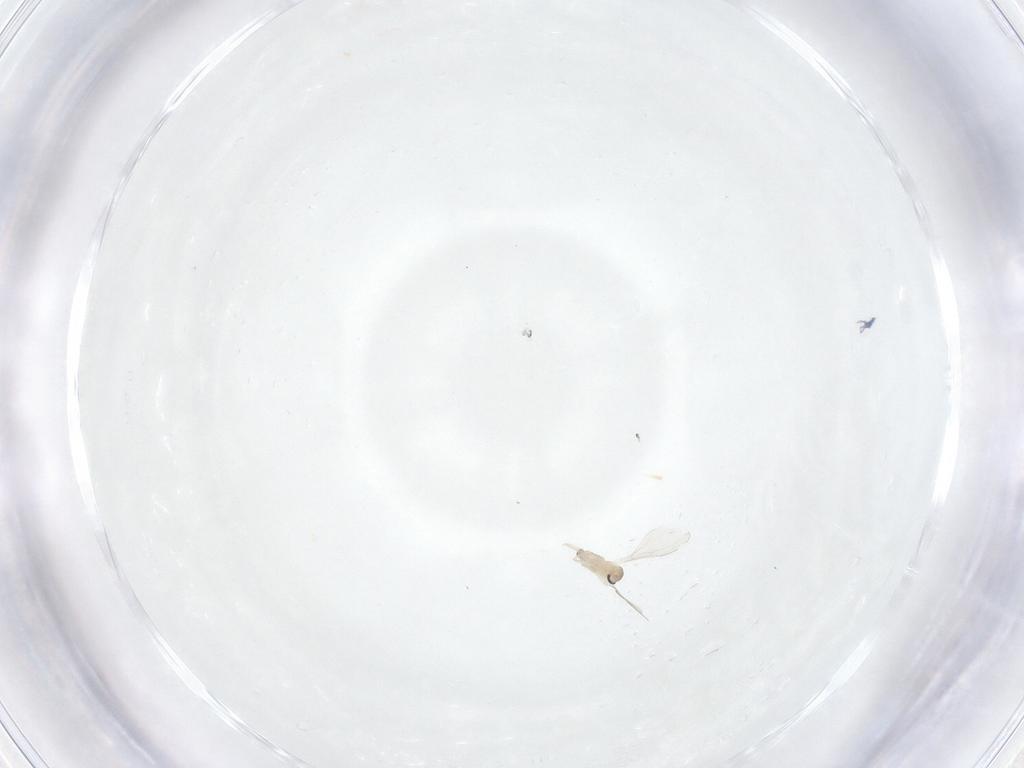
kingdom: Animalia
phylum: Arthropoda
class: Insecta
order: Diptera
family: Cecidomyiidae
